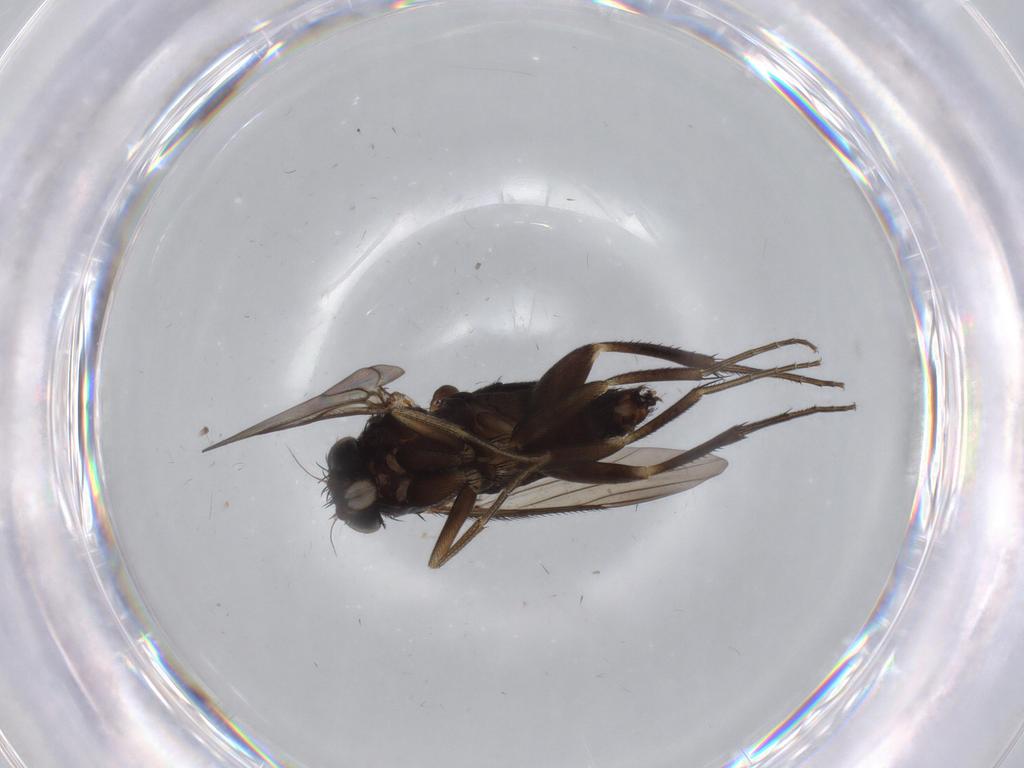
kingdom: Animalia
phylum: Arthropoda
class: Insecta
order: Diptera
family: Phoridae
